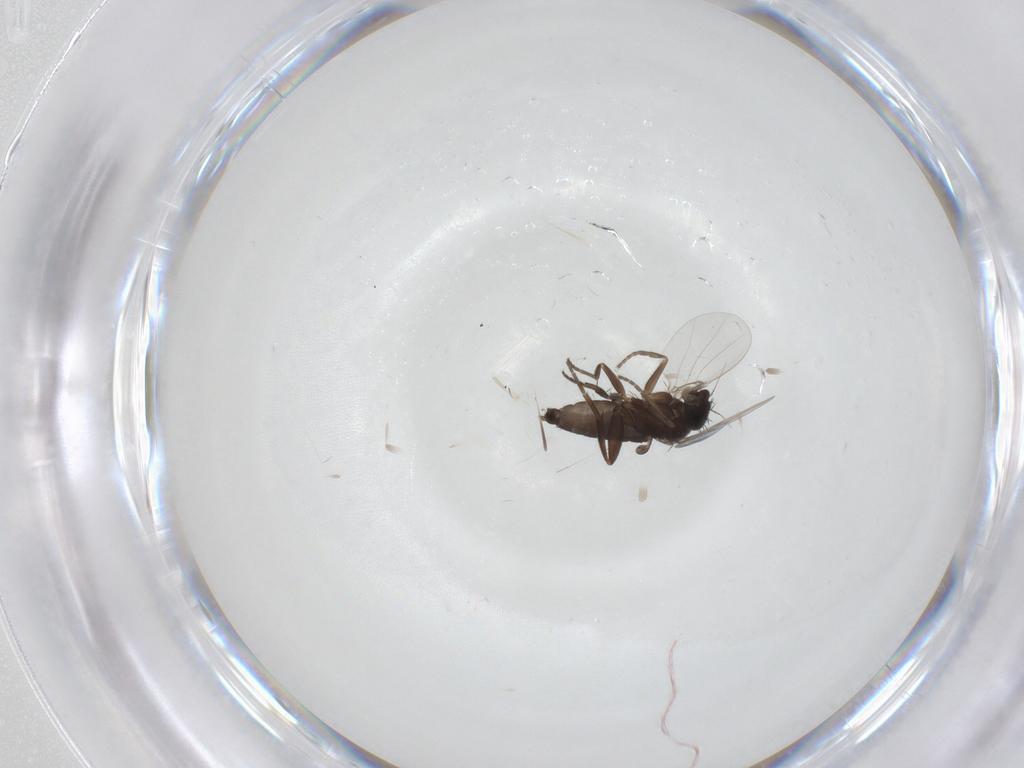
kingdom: Animalia
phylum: Arthropoda
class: Insecta
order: Diptera
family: Phoridae
